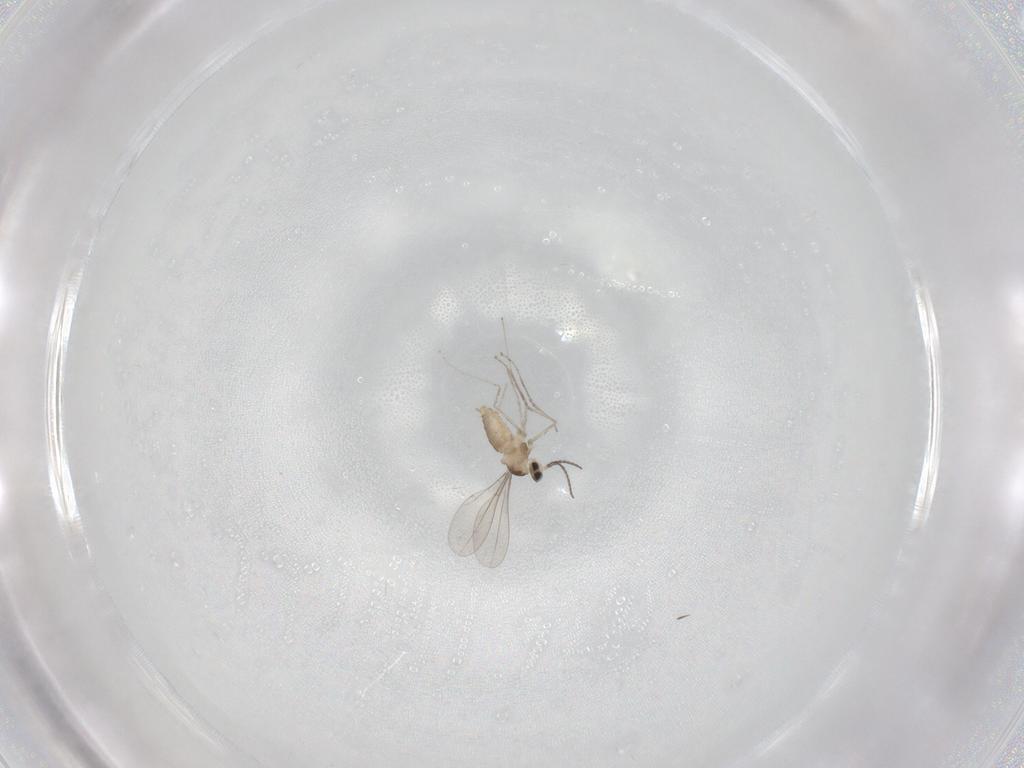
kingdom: Animalia
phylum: Arthropoda
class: Insecta
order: Diptera
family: Cecidomyiidae
